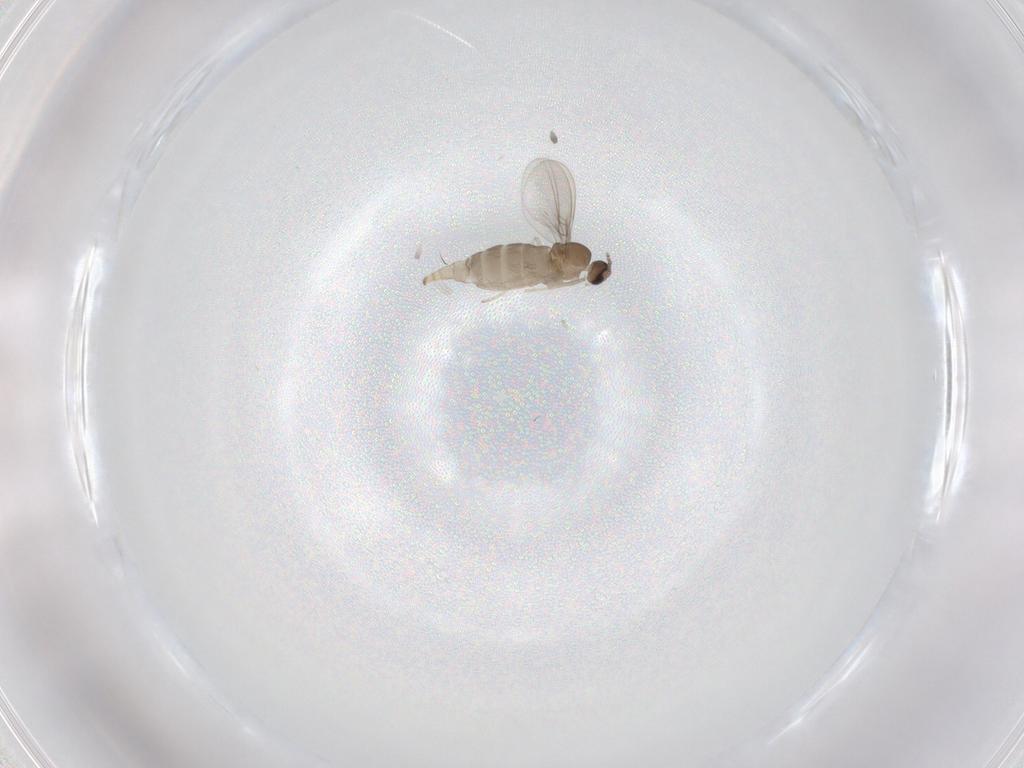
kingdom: Animalia
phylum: Arthropoda
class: Insecta
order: Diptera
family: Cecidomyiidae
